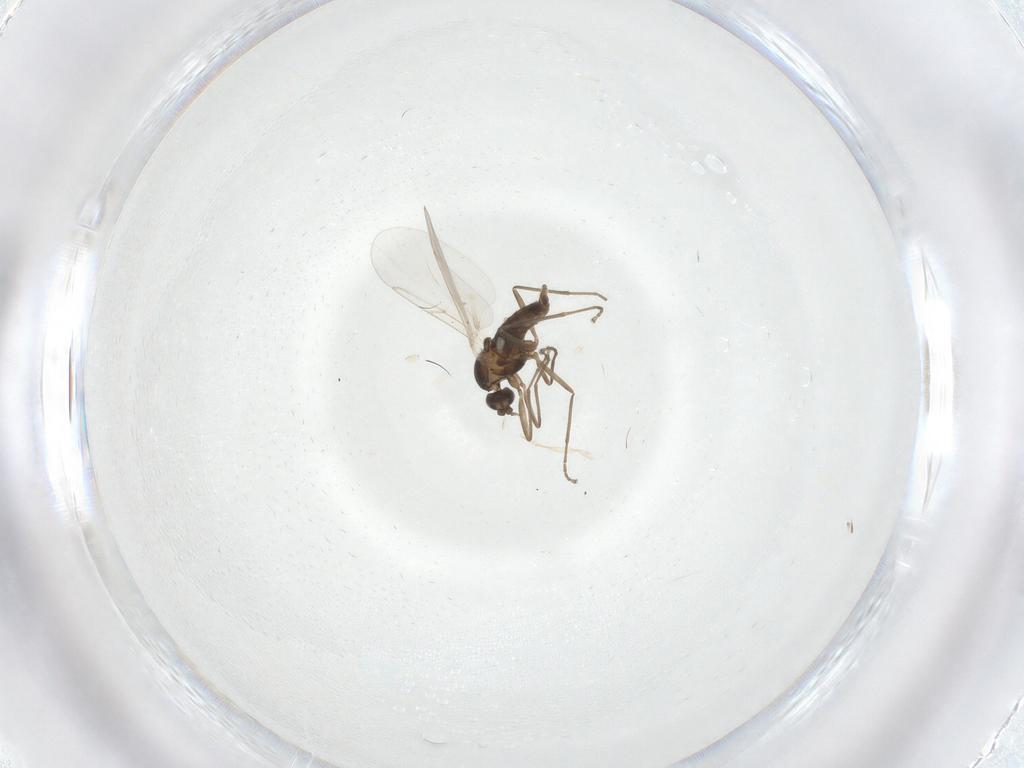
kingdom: Animalia
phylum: Arthropoda
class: Insecta
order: Diptera
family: Cecidomyiidae
